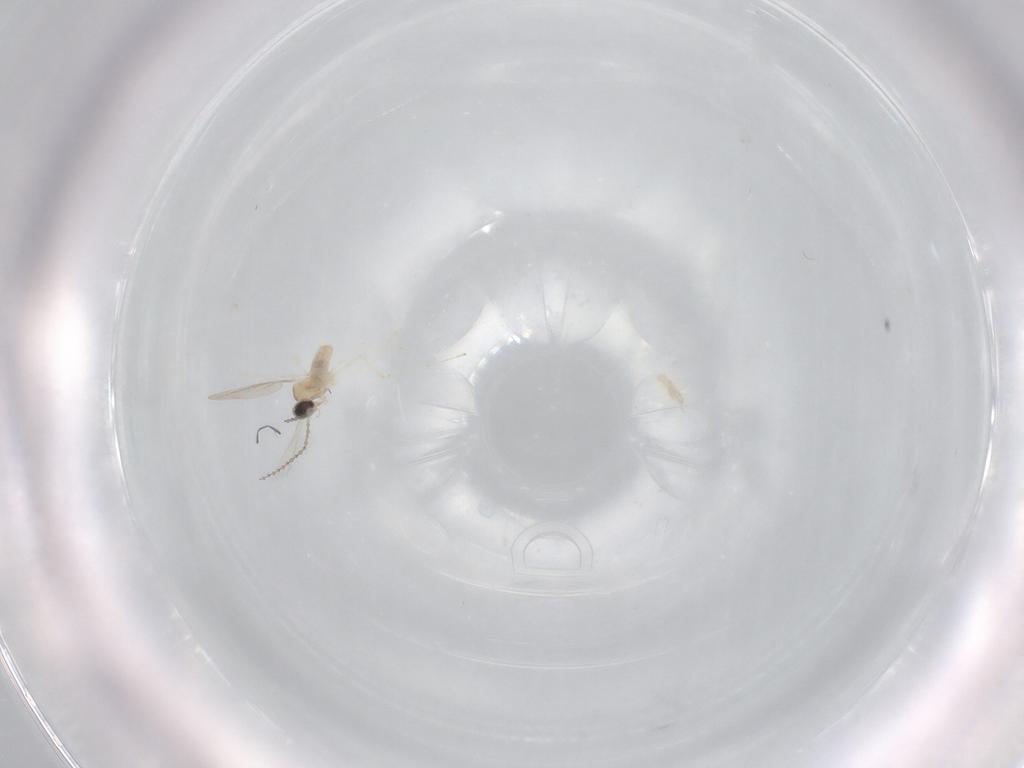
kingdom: Animalia
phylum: Arthropoda
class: Insecta
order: Diptera
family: Cecidomyiidae
